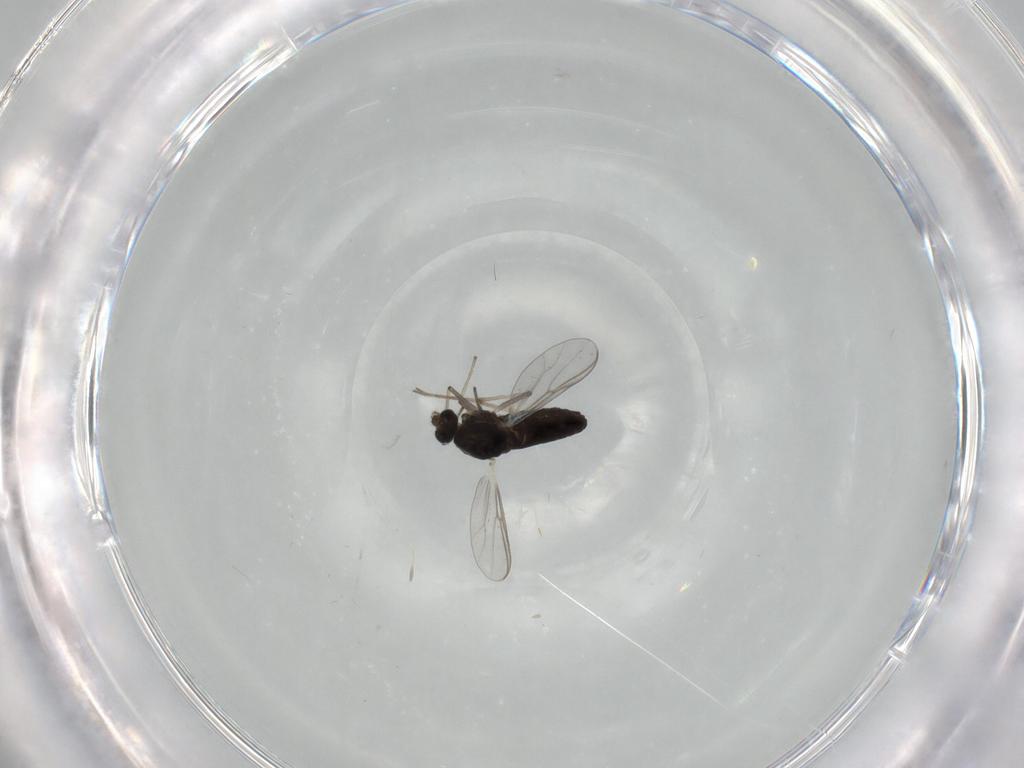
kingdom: Animalia
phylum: Arthropoda
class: Insecta
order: Diptera
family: Chironomidae
